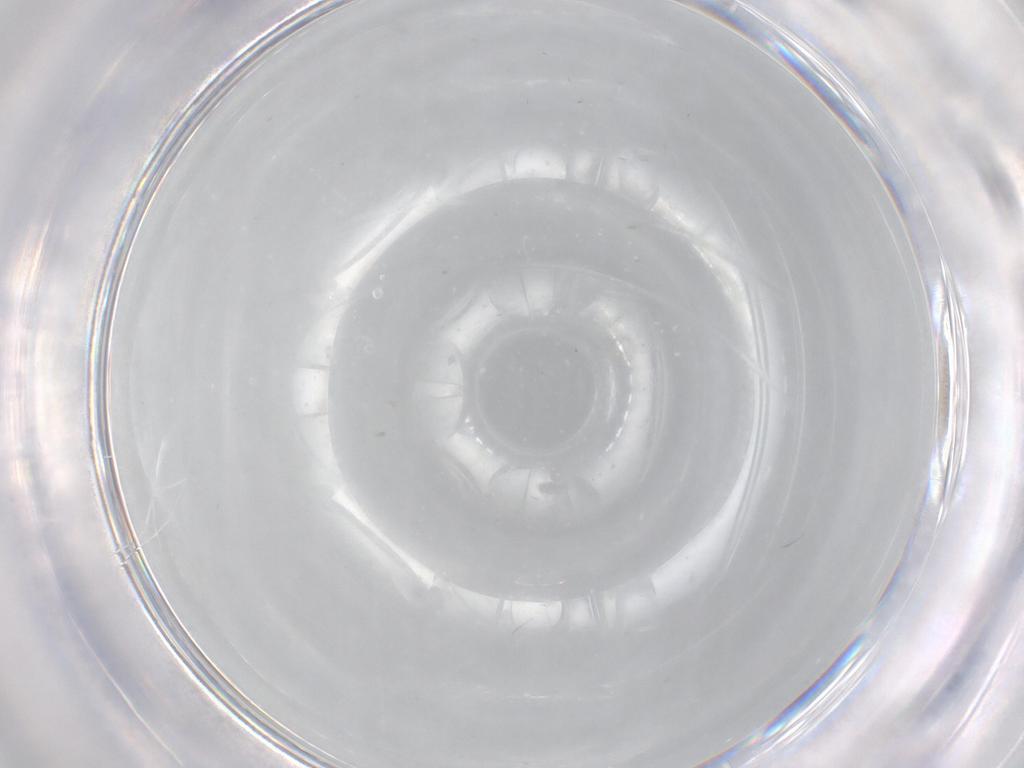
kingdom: Animalia
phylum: Arthropoda
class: Insecta
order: Diptera
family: Cecidomyiidae
